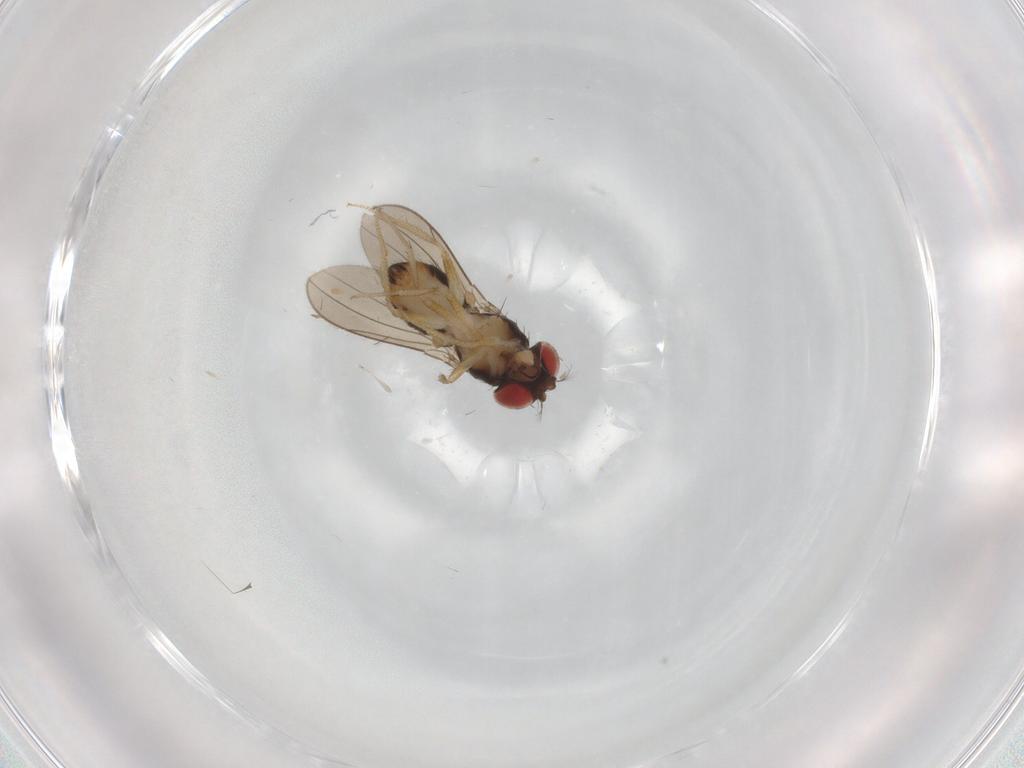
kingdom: Animalia
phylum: Arthropoda
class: Insecta
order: Diptera
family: Drosophilidae
